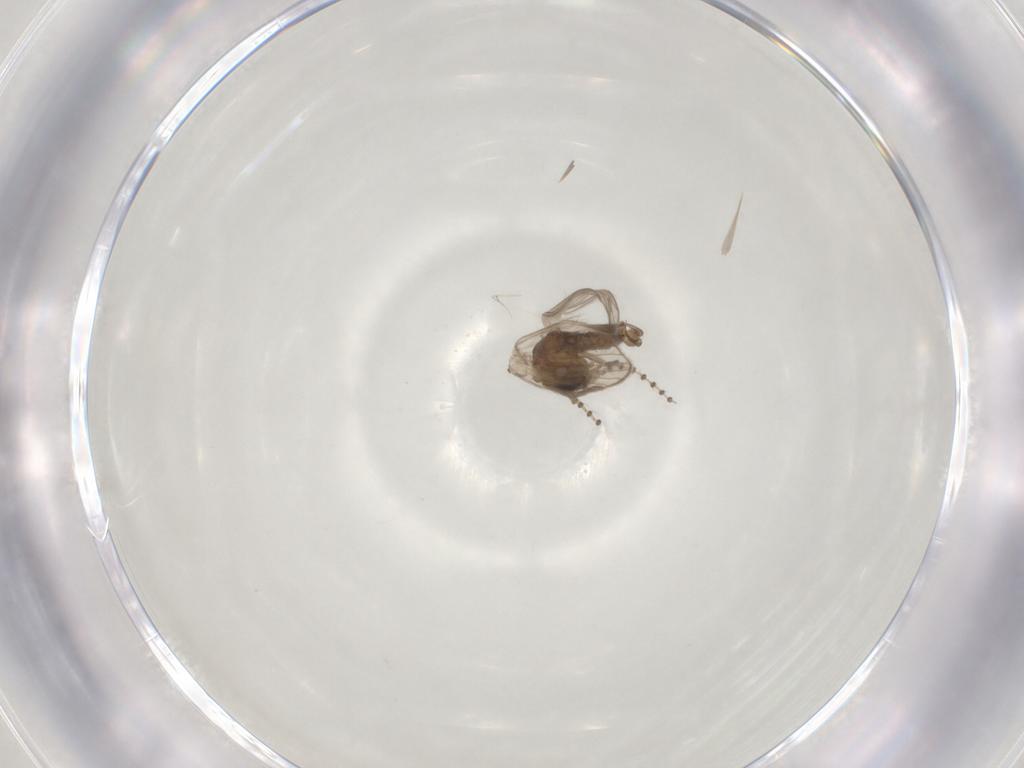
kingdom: Animalia
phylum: Arthropoda
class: Insecta
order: Diptera
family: Psychodidae
